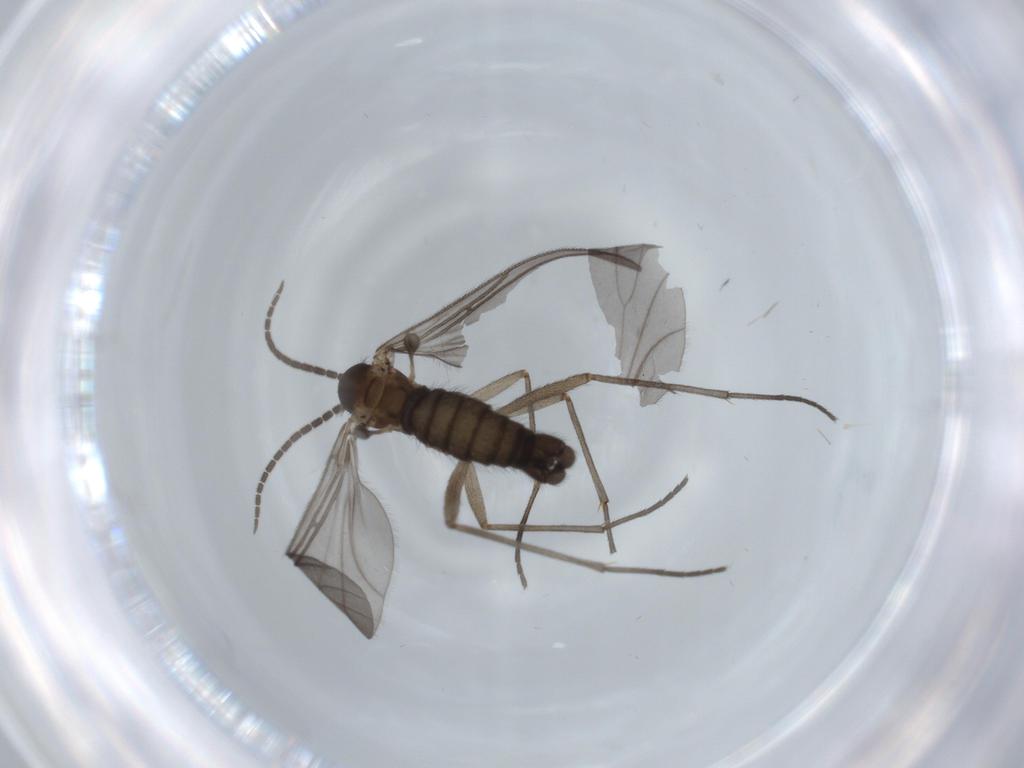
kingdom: Animalia
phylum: Arthropoda
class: Insecta
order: Diptera
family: Sciaridae
